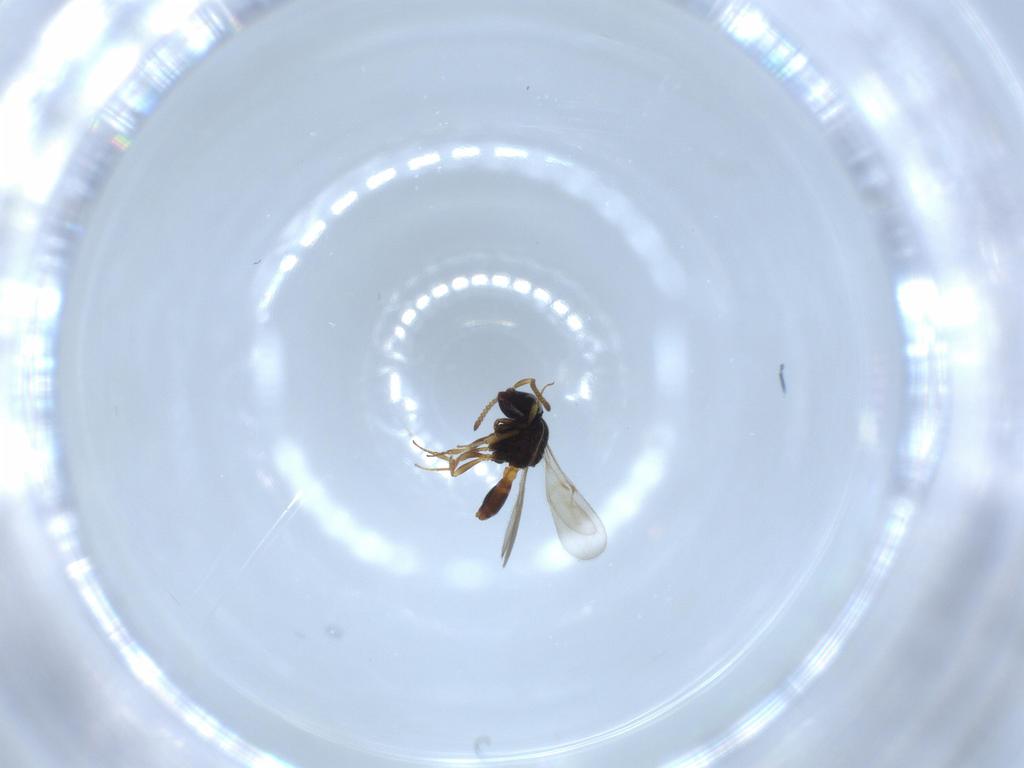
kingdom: Animalia
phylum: Arthropoda
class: Insecta
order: Hymenoptera
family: Scelionidae
